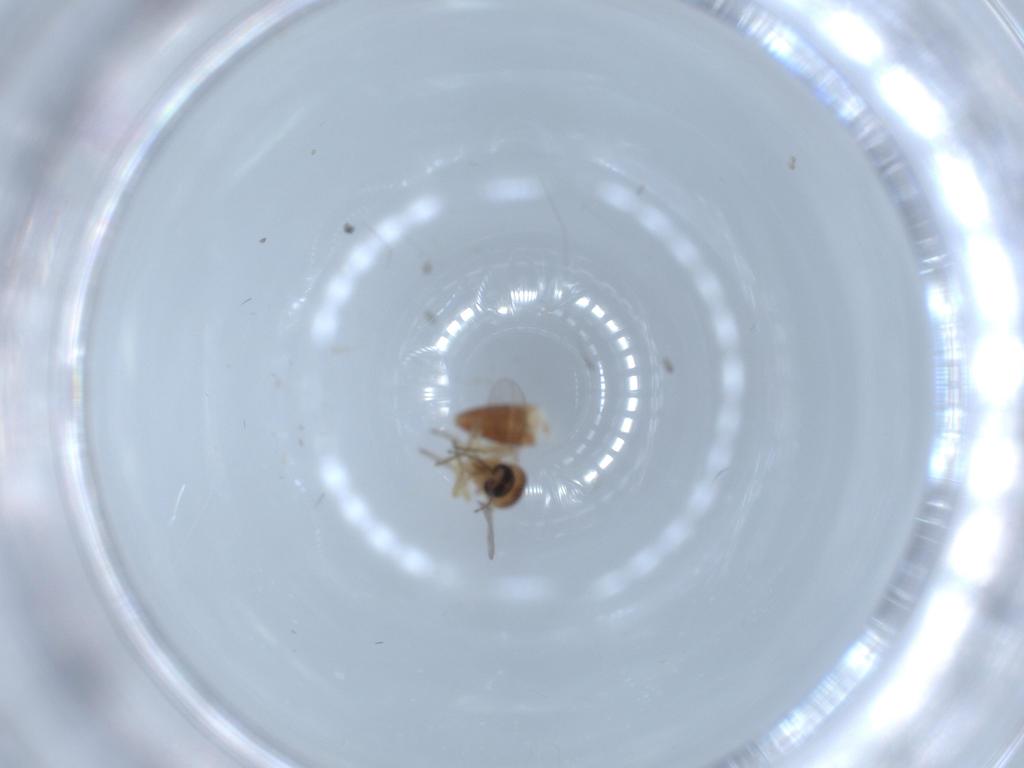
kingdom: Animalia
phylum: Arthropoda
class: Insecta
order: Diptera
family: Ceratopogonidae
